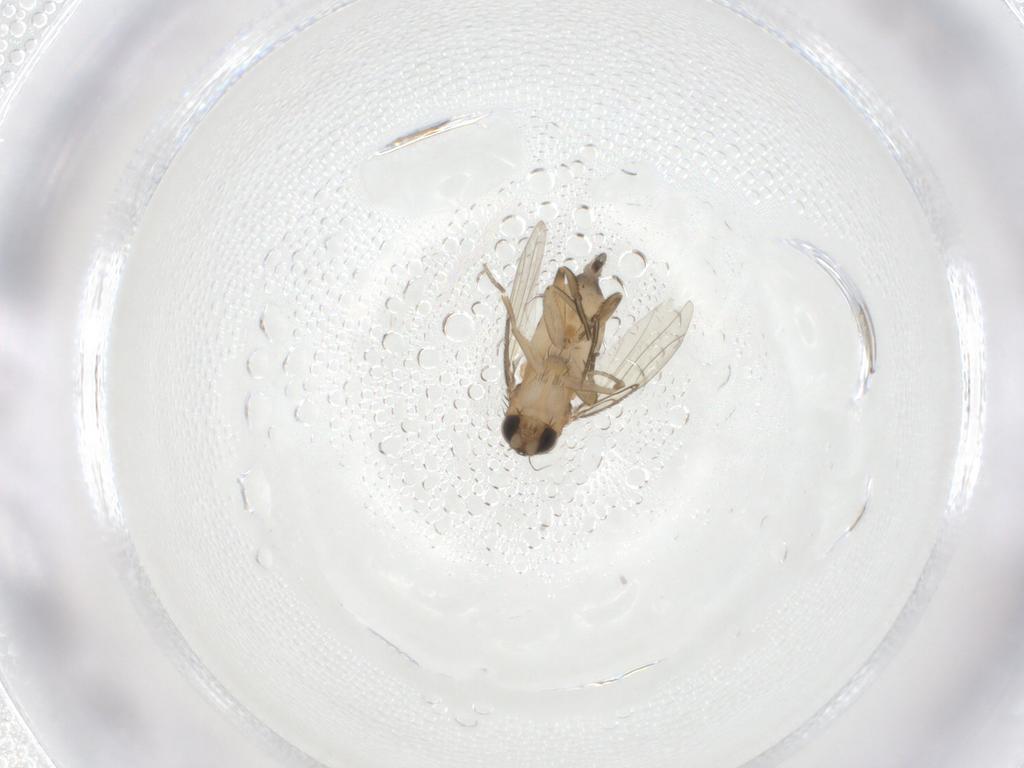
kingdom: Animalia
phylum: Arthropoda
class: Insecta
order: Diptera
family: Phoridae
